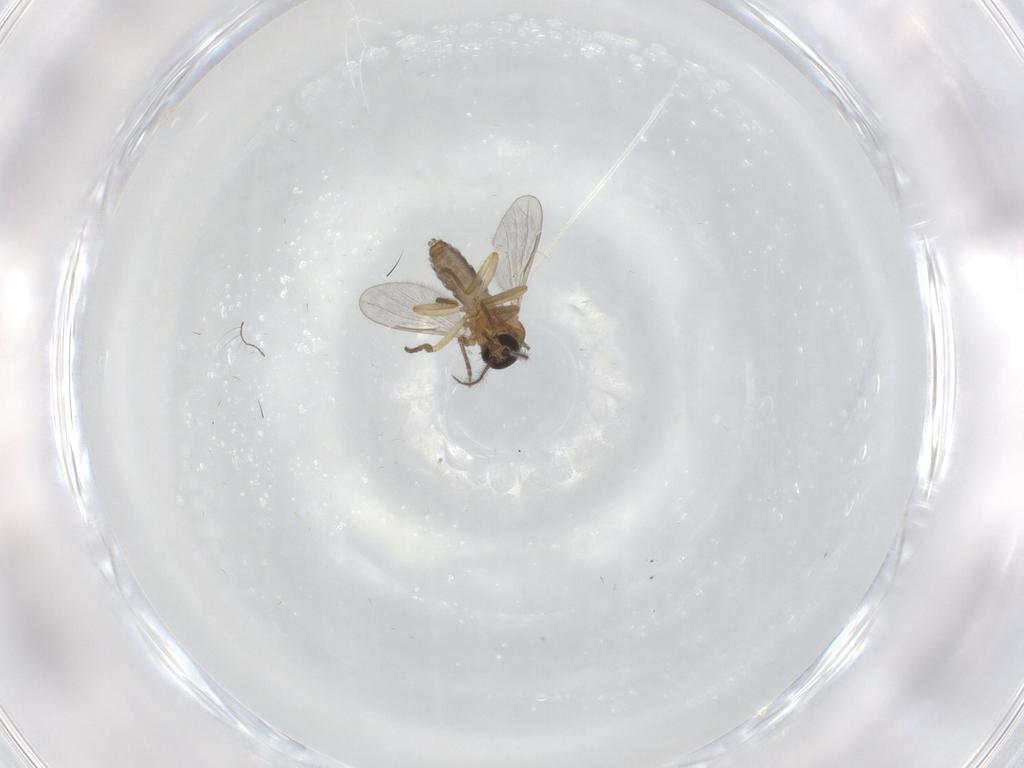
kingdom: Animalia
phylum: Arthropoda
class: Insecta
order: Diptera
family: Ceratopogonidae
